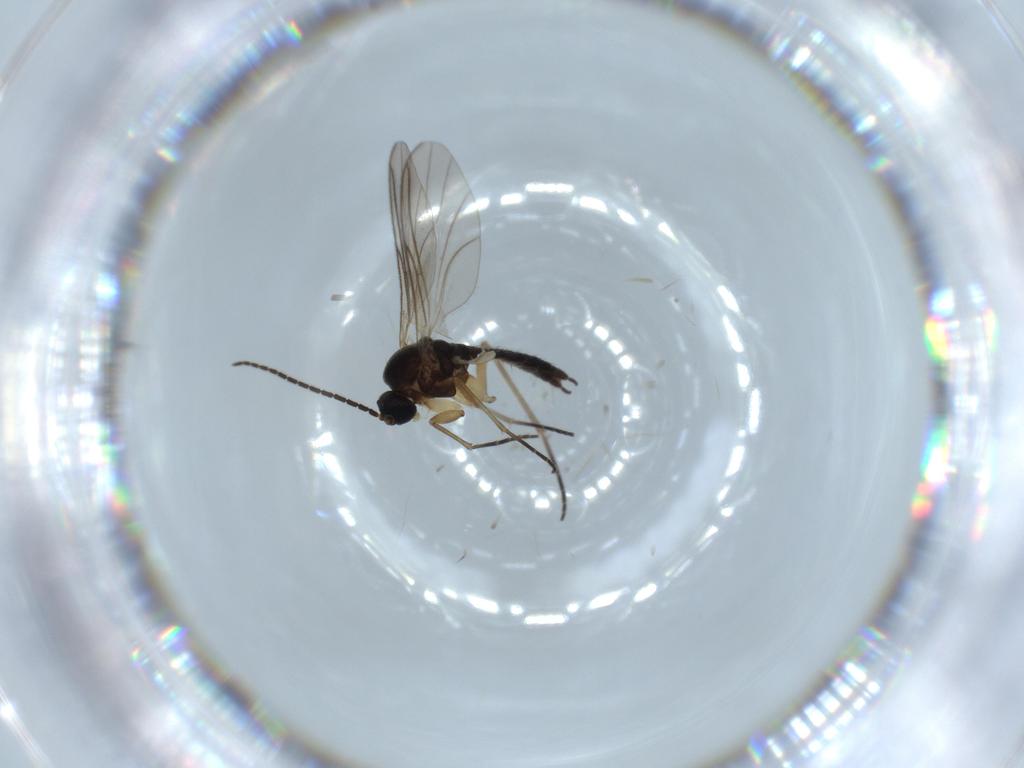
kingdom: Animalia
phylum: Arthropoda
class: Insecta
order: Diptera
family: Sciaridae
